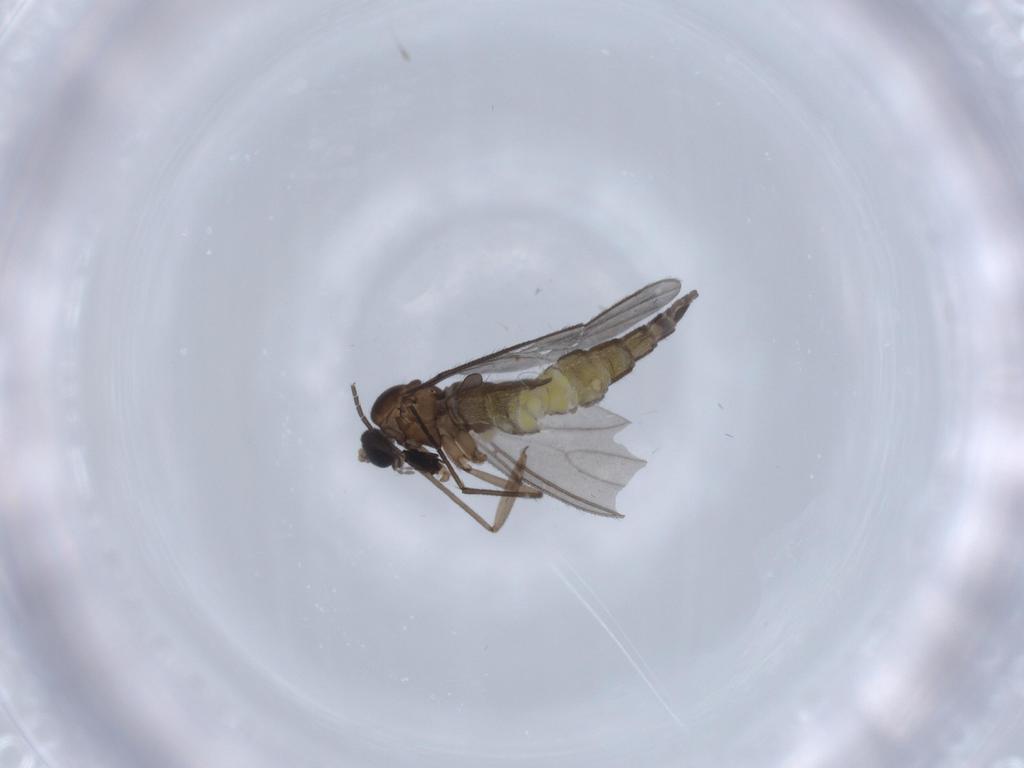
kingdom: Animalia
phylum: Arthropoda
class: Insecta
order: Diptera
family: Sciaridae
